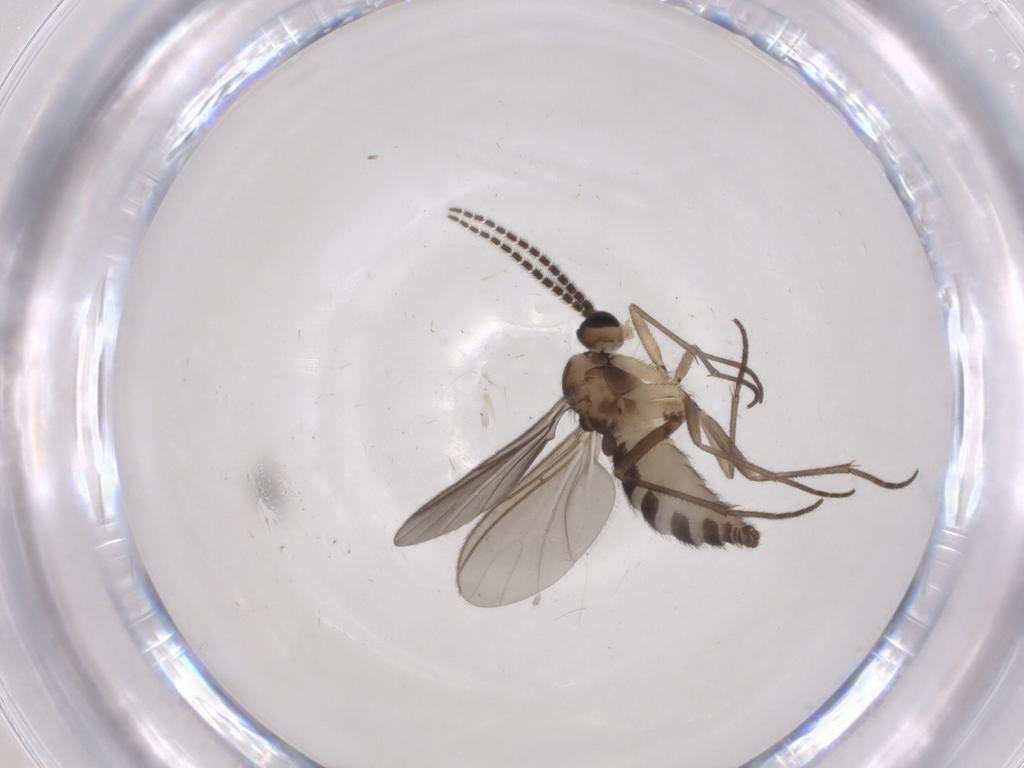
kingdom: Animalia
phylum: Arthropoda
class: Insecta
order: Diptera
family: Sciaridae
